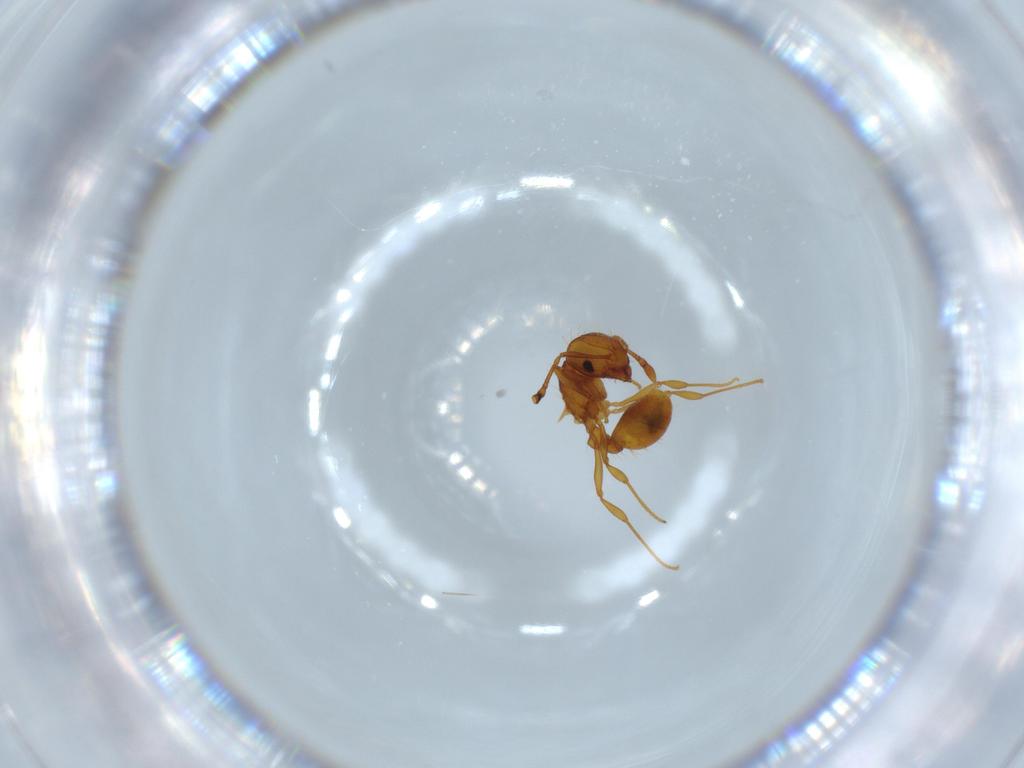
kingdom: Animalia
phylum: Arthropoda
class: Insecta
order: Hymenoptera
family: Formicidae
